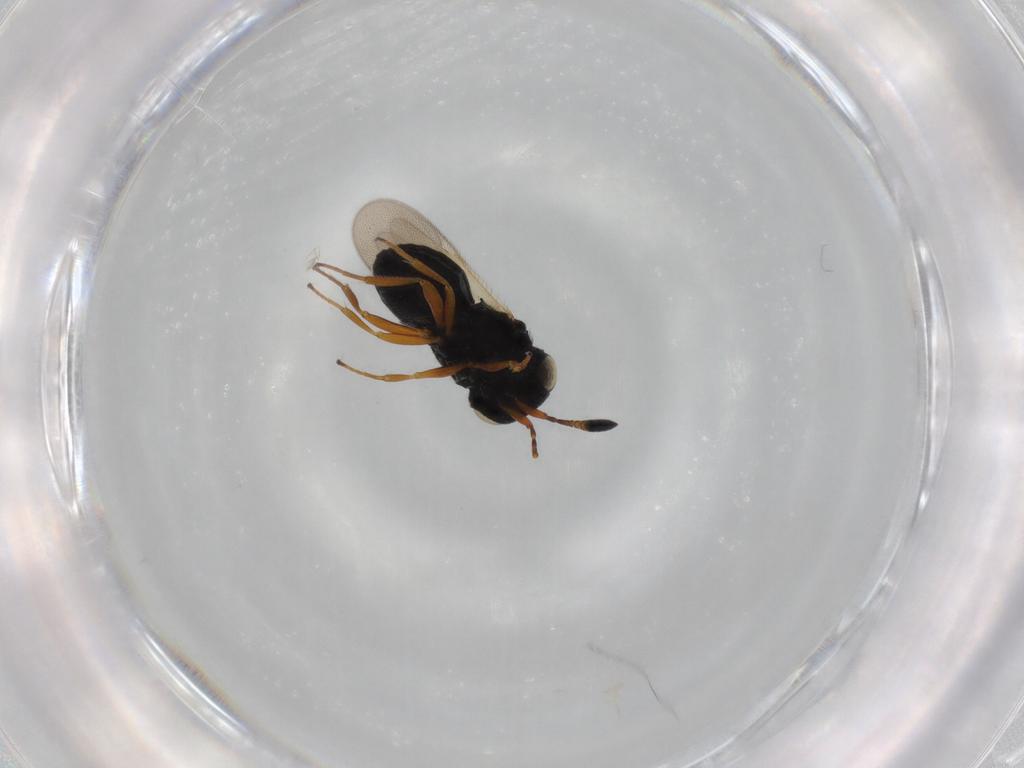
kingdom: Animalia
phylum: Arthropoda
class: Insecta
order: Hymenoptera
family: Scelionidae
